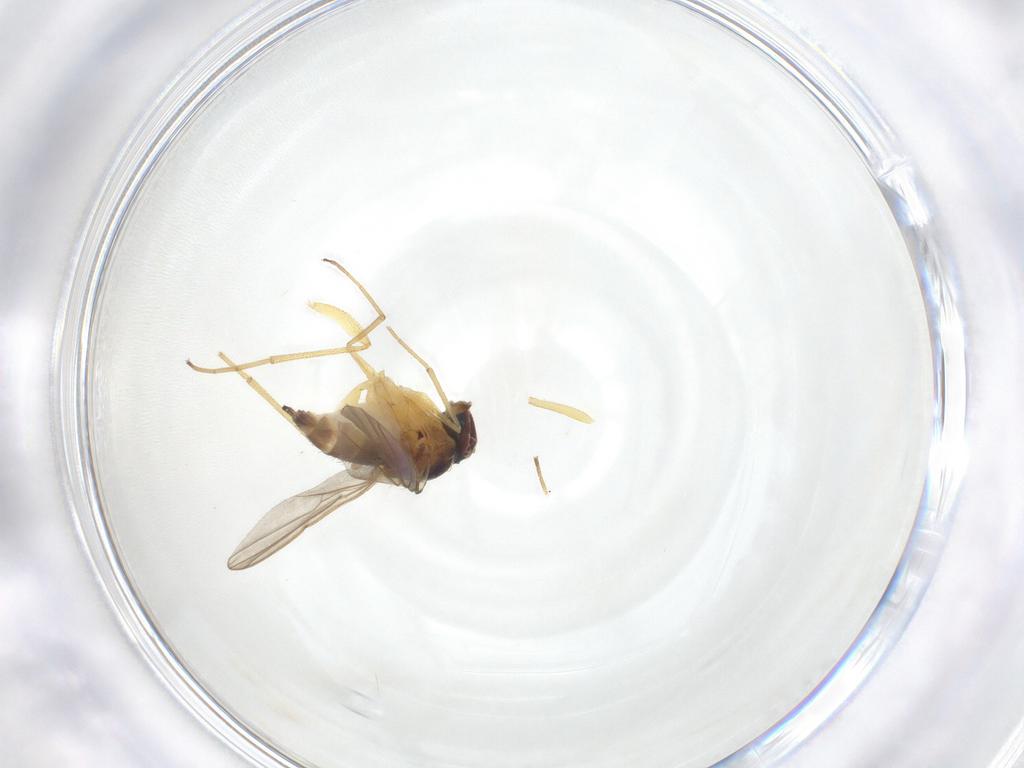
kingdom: Animalia
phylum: Arthropoda
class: Insecta
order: Diptera
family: Dolichopodidae
